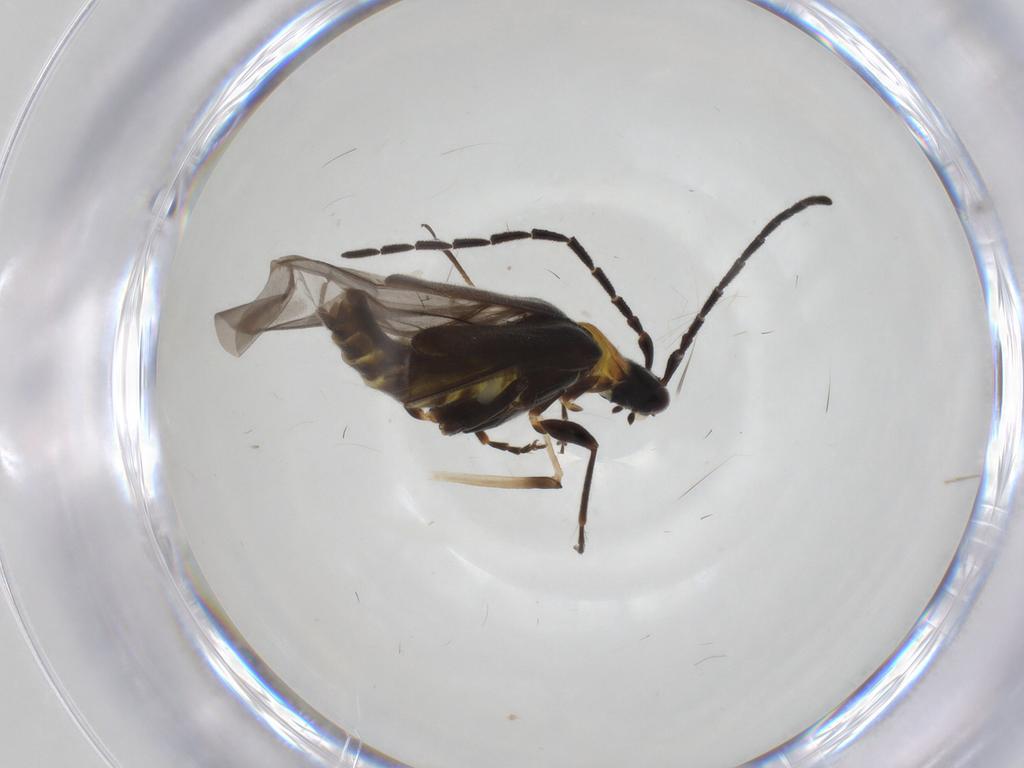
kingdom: Animalia
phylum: Arthropoda
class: Insecta
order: Coleoptera
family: Cantharidae
